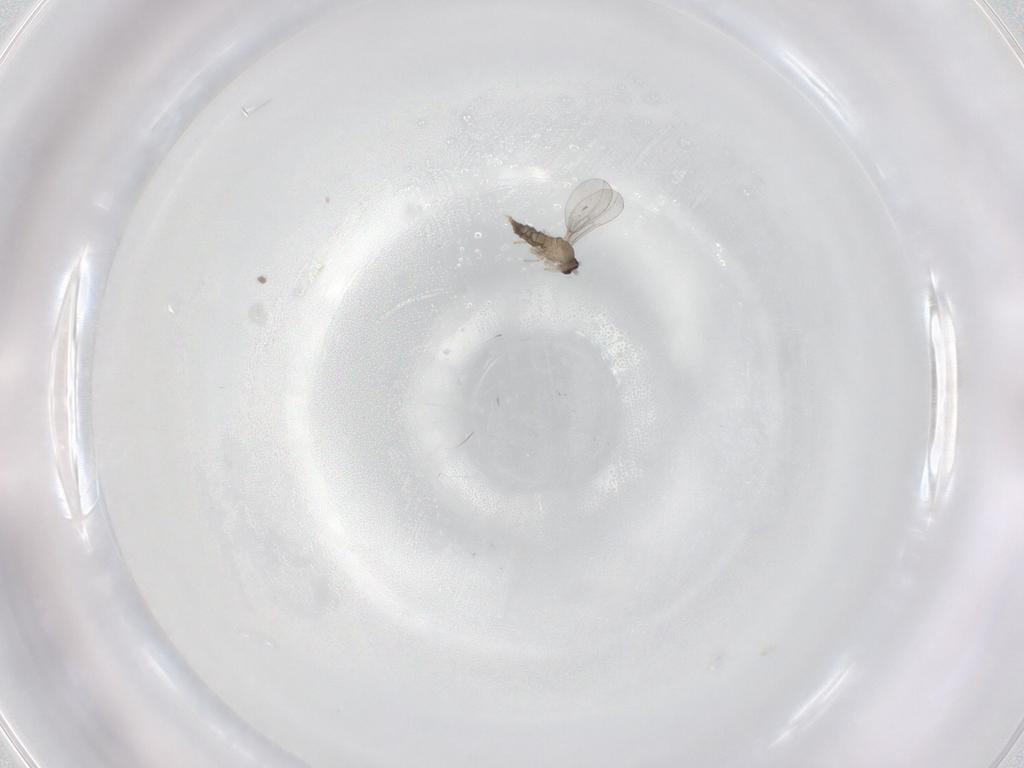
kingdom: Animalia
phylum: Arthropoda
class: Insecta
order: Diptera
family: Cecidomyiidae
